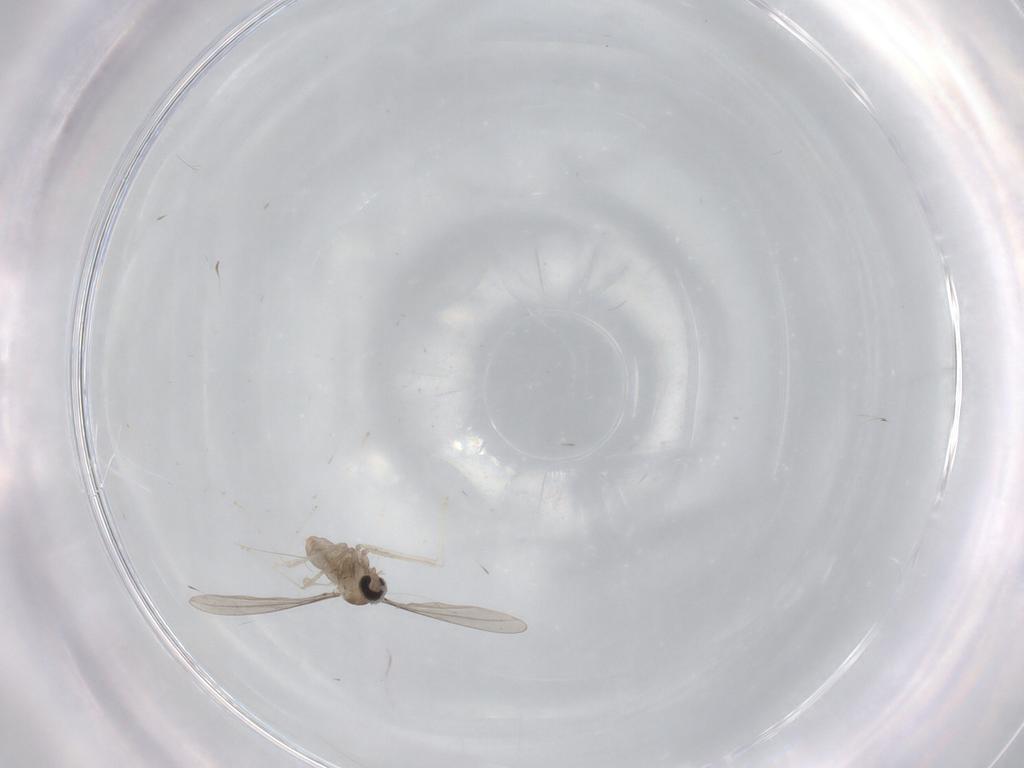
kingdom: Animalia
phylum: Arthropoda
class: Insecta
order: Diptera
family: Cecidomyiidae
